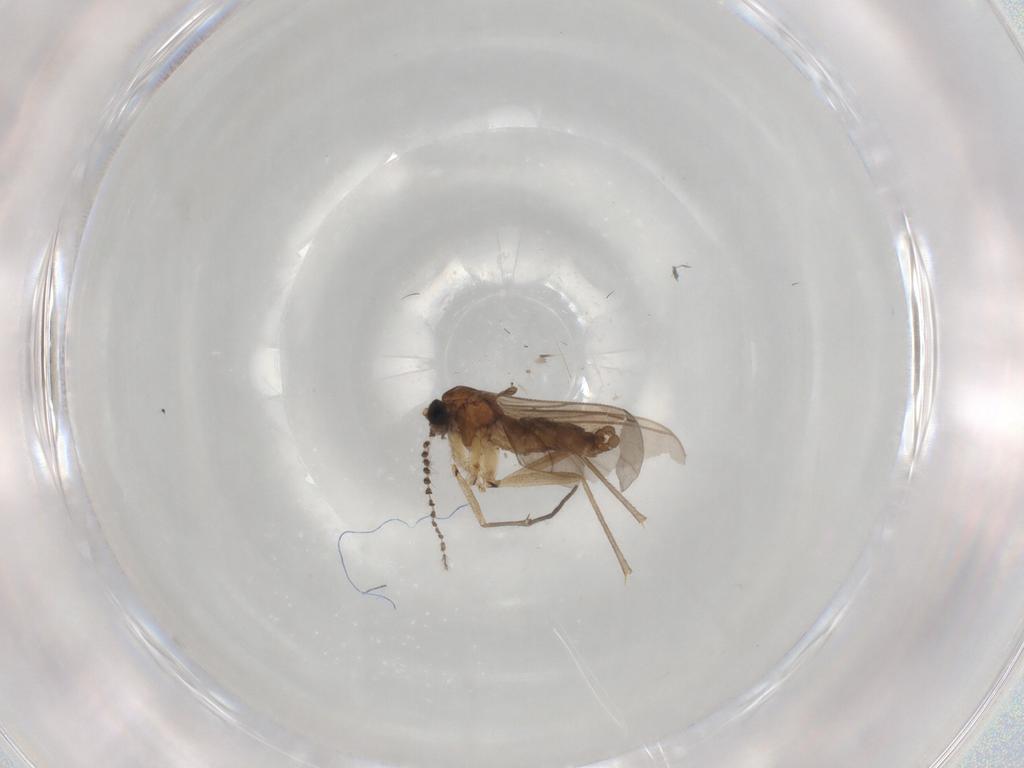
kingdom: Animalia
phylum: Arthropoda
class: Insecta
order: Diptera
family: Sciaridae
